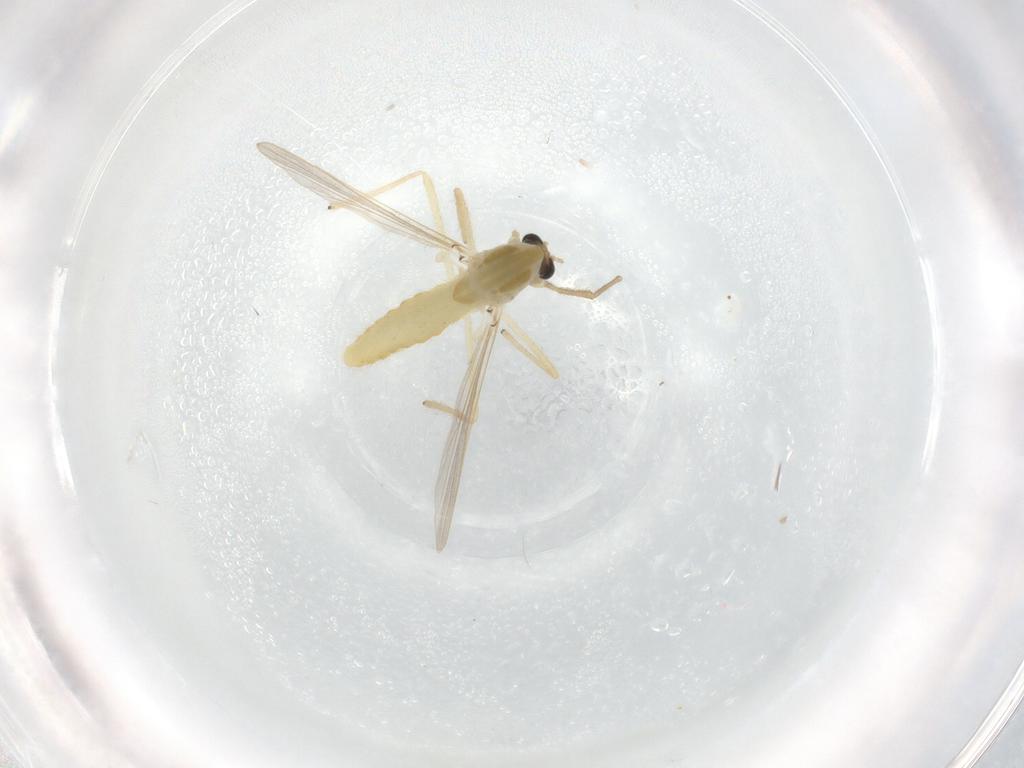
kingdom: Animalia
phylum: Arthropoda
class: Insecta
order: Diptera
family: Chironomidae
